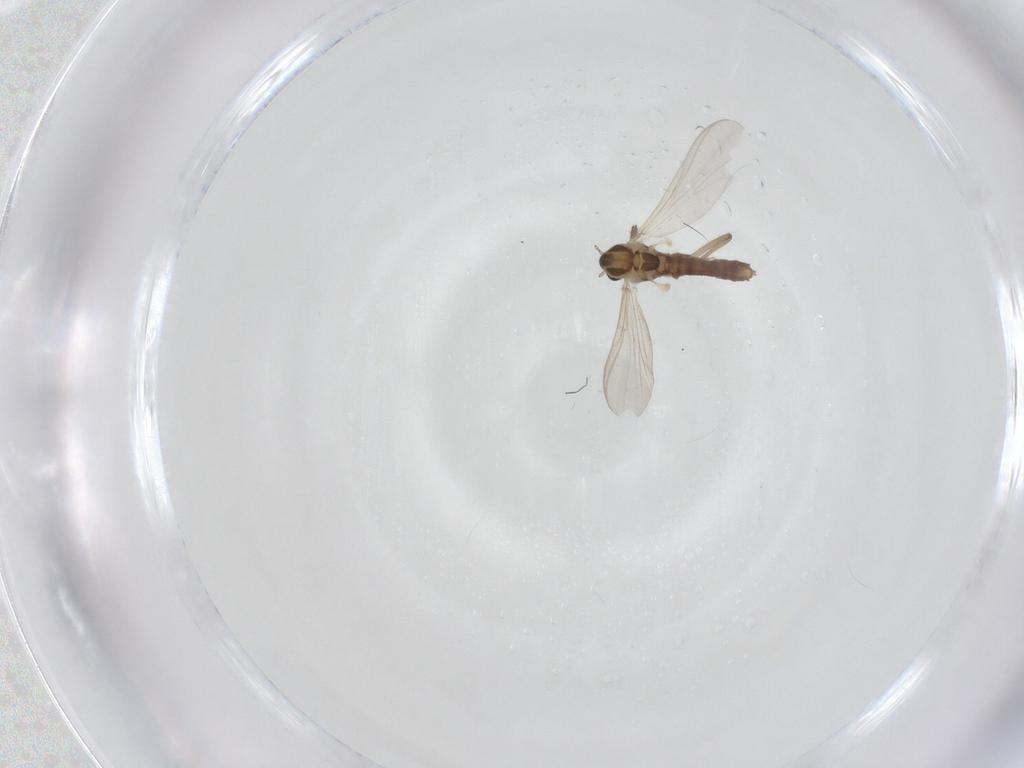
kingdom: Animalia
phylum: Arthropoda
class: Insecta
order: Diptera
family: Chironomidae
